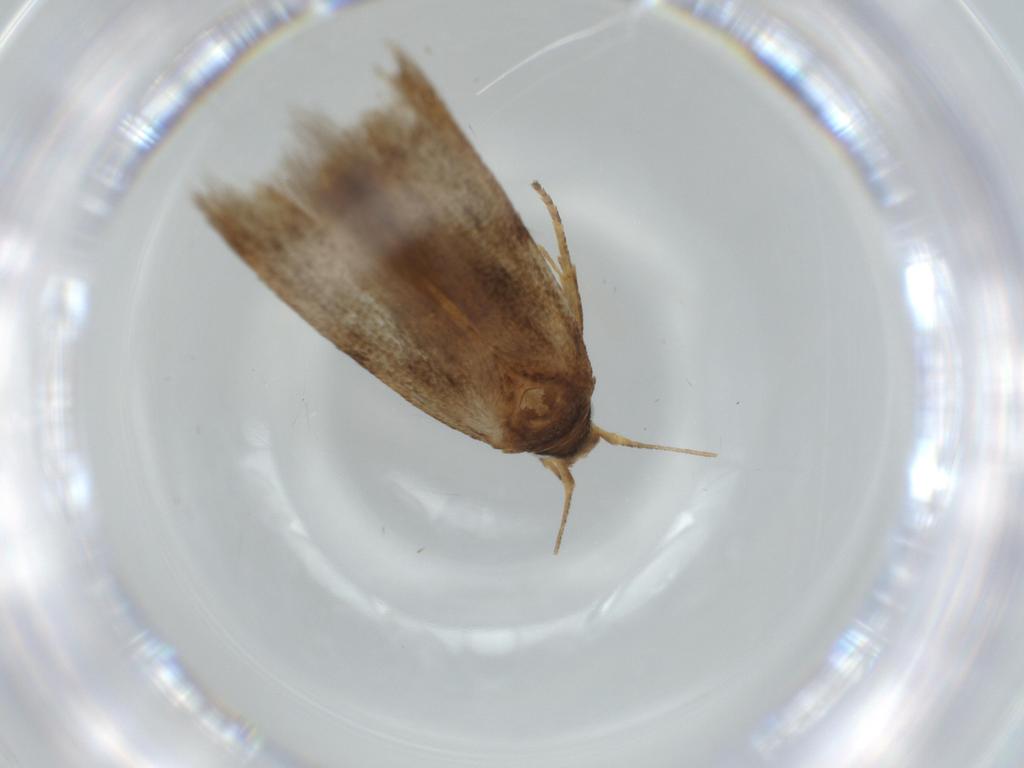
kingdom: Animalia
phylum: Arthropoda
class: Insecta
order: Lepidoptera
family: Blastobasidae
